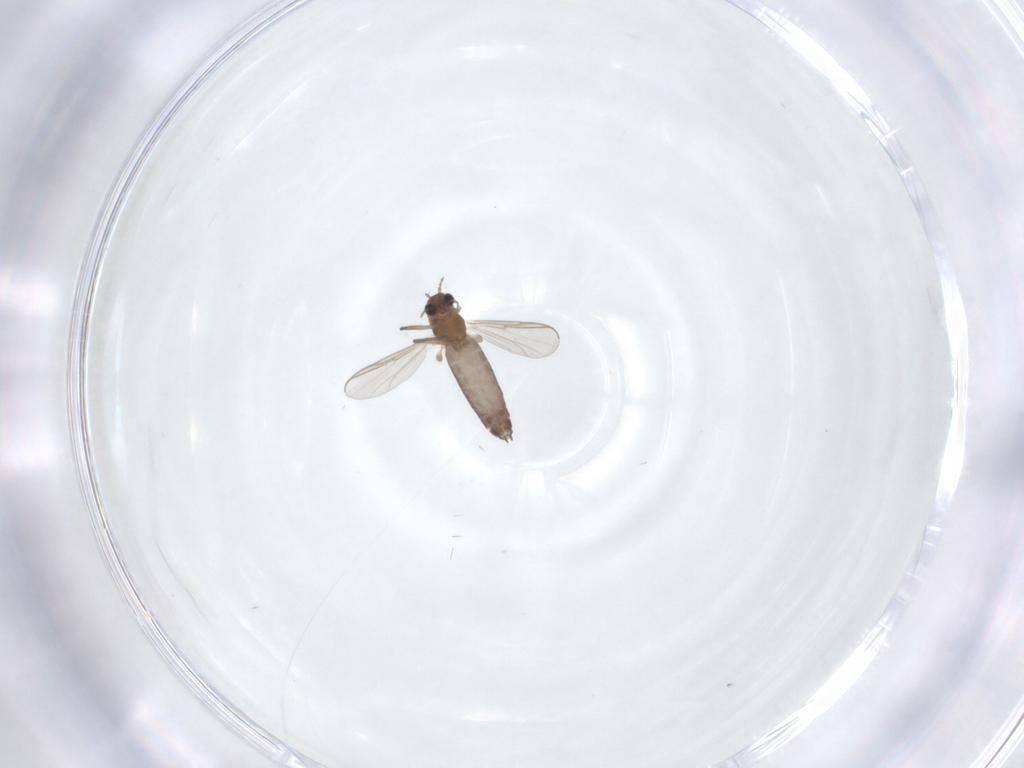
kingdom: Animalia
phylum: Arthropoda
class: Insecta
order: Diptera
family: Chironomidae
